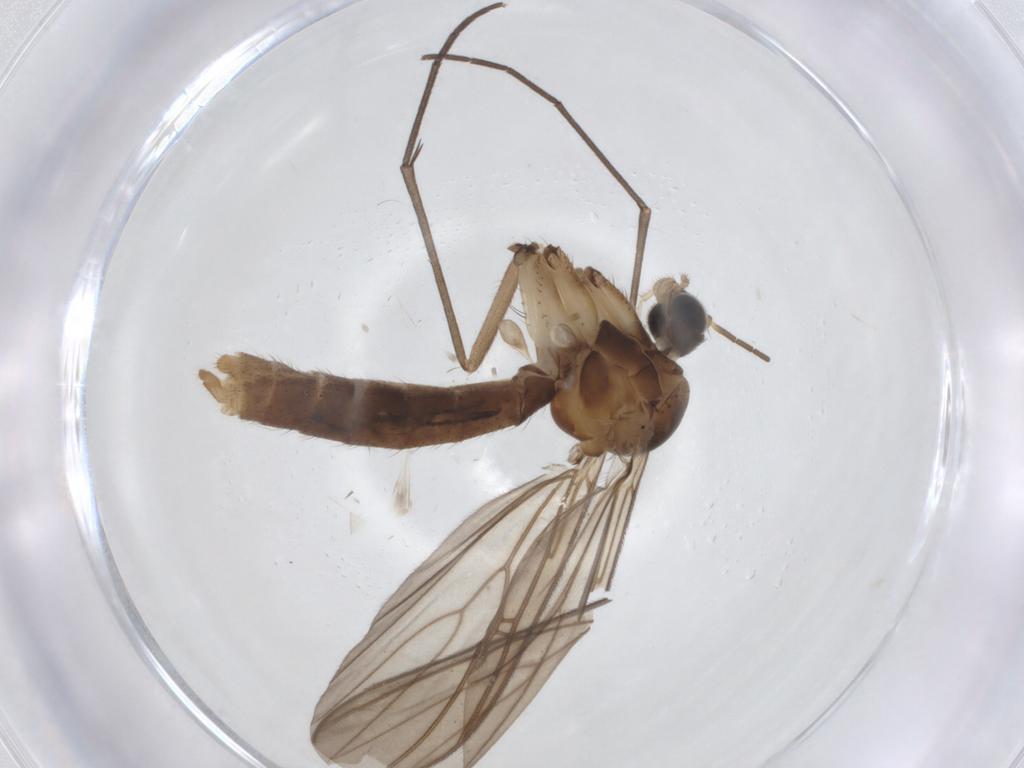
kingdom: Animalia
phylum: Arthropoda
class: Insecta
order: Diptera
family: Mycetophilidae
